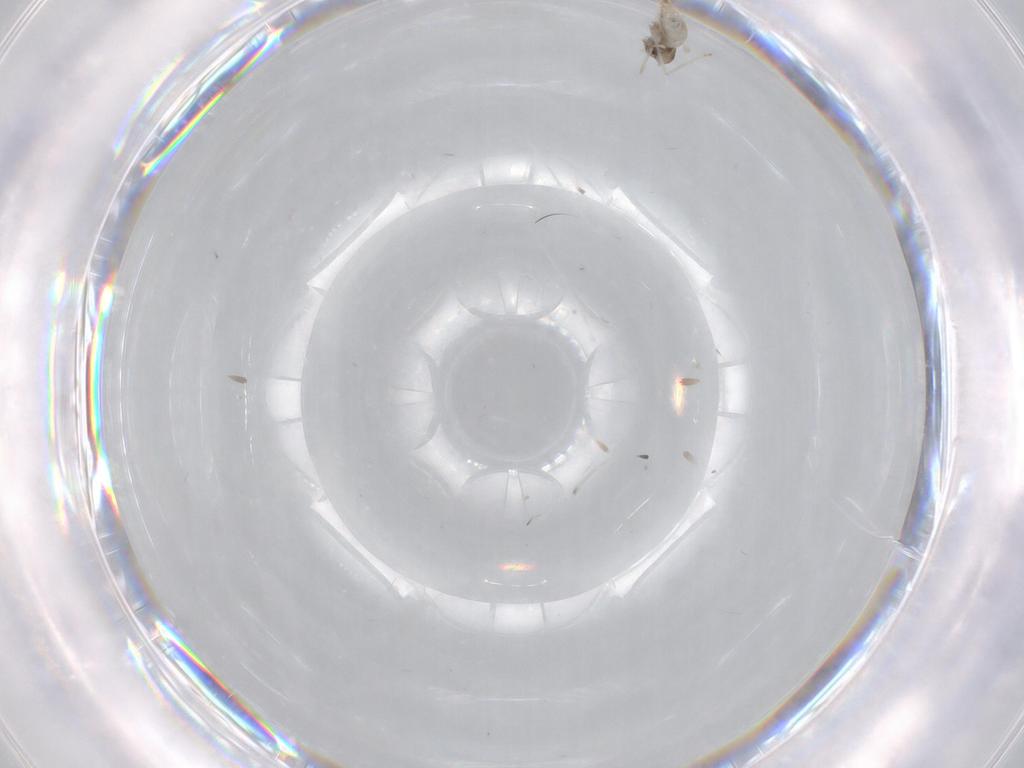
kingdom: Animalia
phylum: Arthropoda
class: Insecta
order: Diptera
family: Cecidomyiidae
